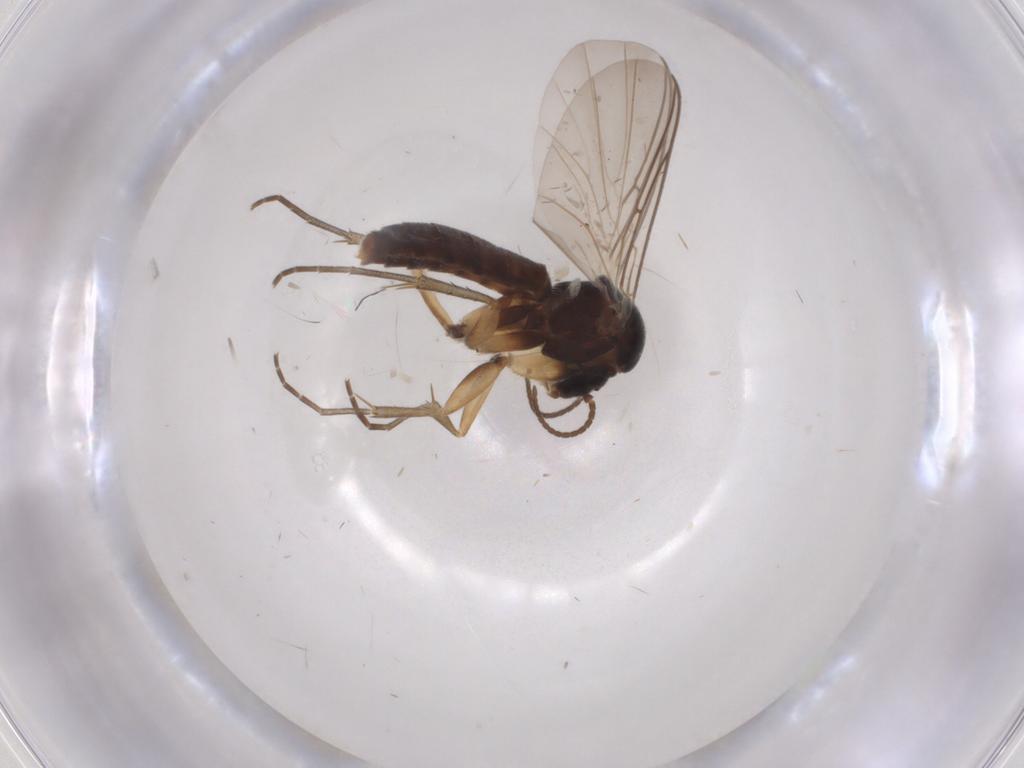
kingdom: Animalia
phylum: Arthropoda
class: Insecta
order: Diptera
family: Mycetophilidae
